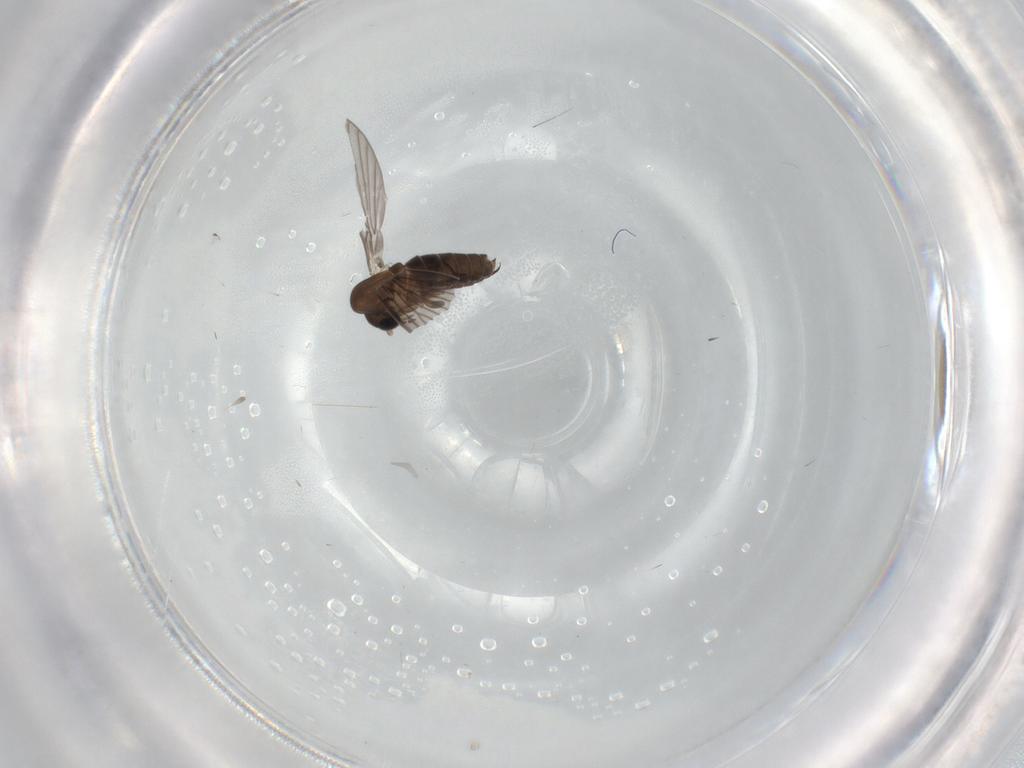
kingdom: Animalia
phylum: Arthropoda
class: Insecta
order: Diptera
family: Psychodidae
